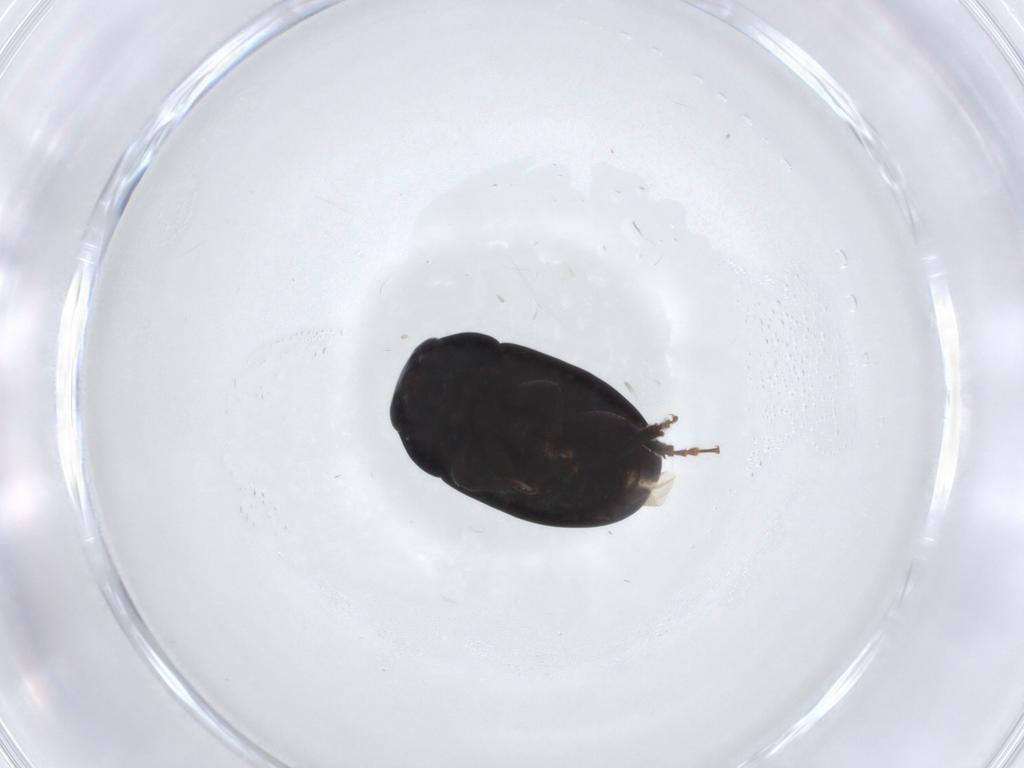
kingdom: Animalia
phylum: Arthropoda
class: Insecta
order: Coleoptera
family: Phalacridae
